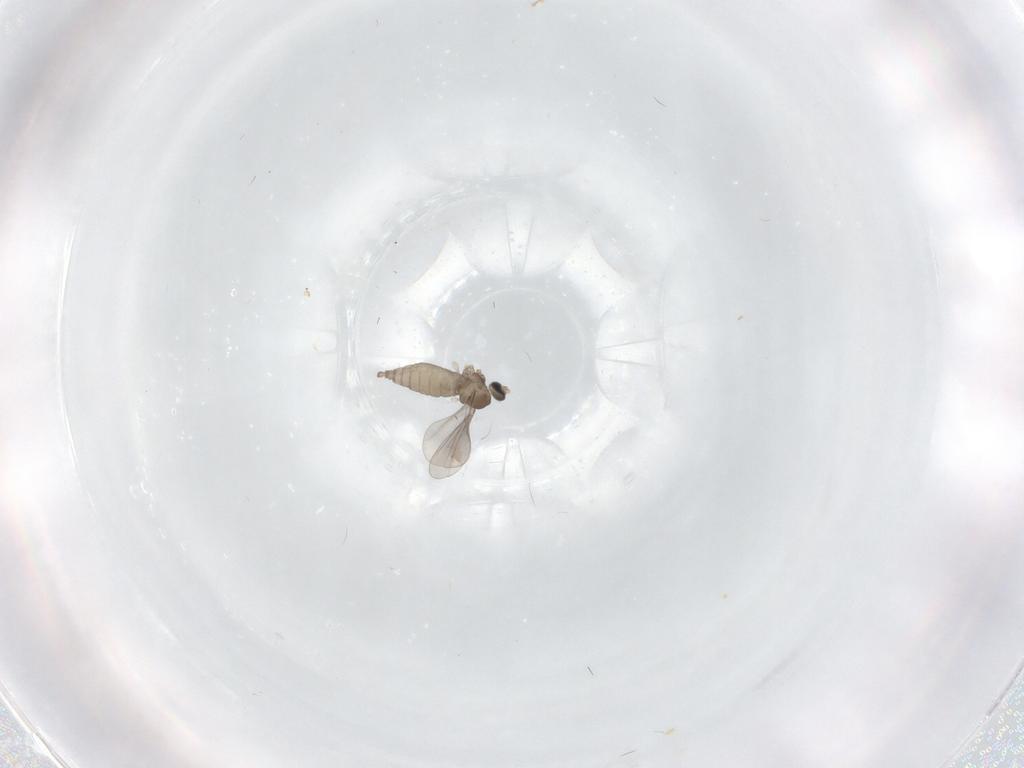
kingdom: Animalia
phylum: Arthropoda
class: Insecta
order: Diptera
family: Limoniidae
